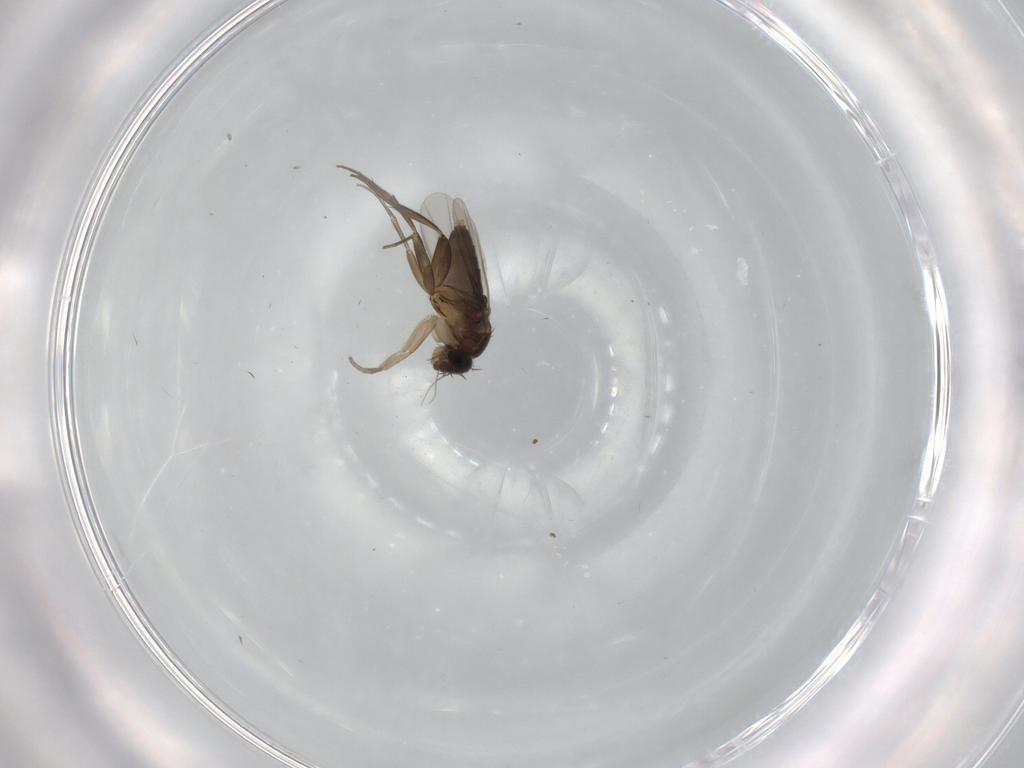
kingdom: Animalia
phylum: Arthropoda
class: Insecta
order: Diptera
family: Phoridae
